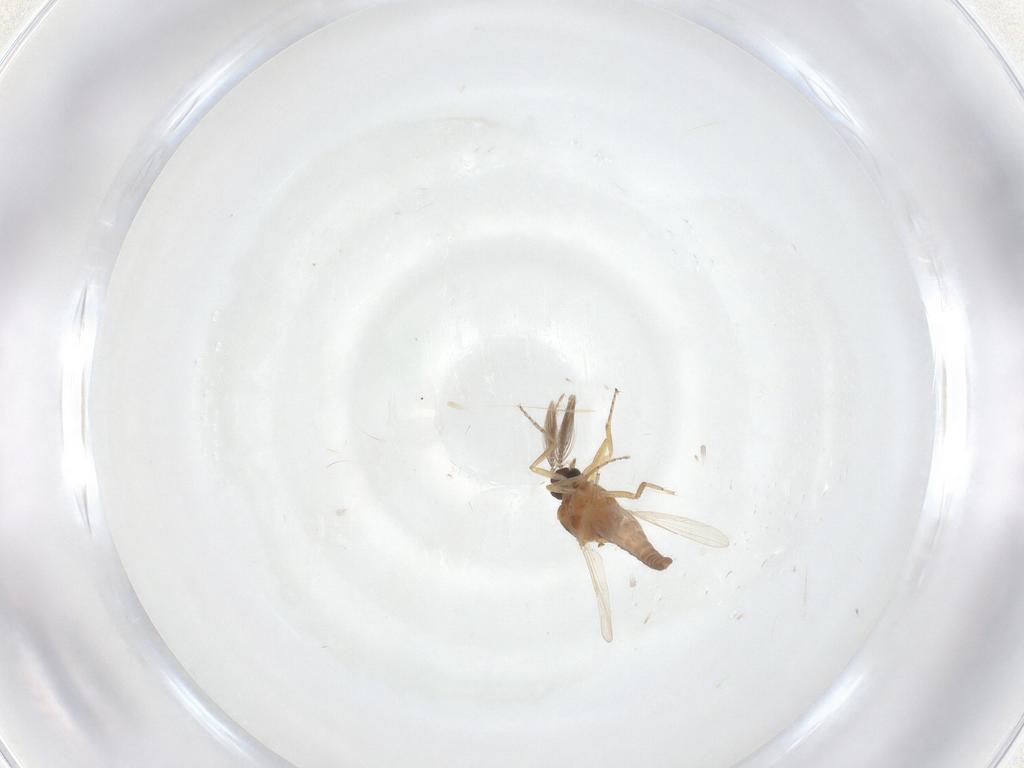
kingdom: Animalia
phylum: Arthropoda
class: Insecta
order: Diptera
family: Ceratopogonidae
